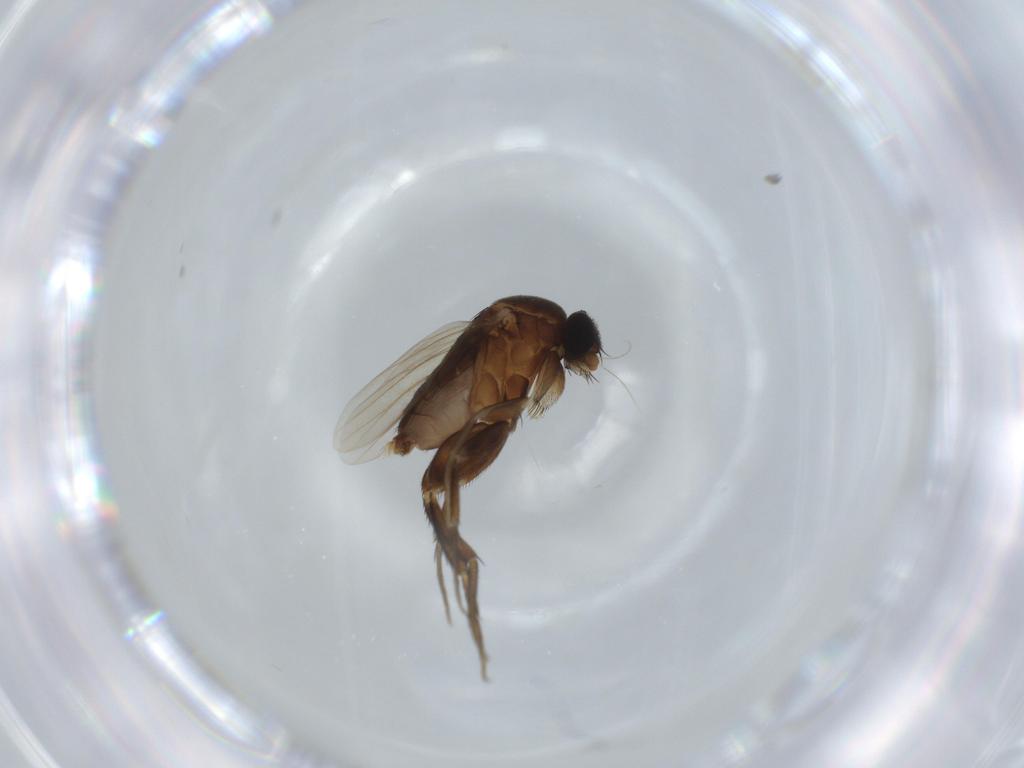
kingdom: Animalia
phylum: Arthropoda
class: Insecta
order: Diptera
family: Phoridae
